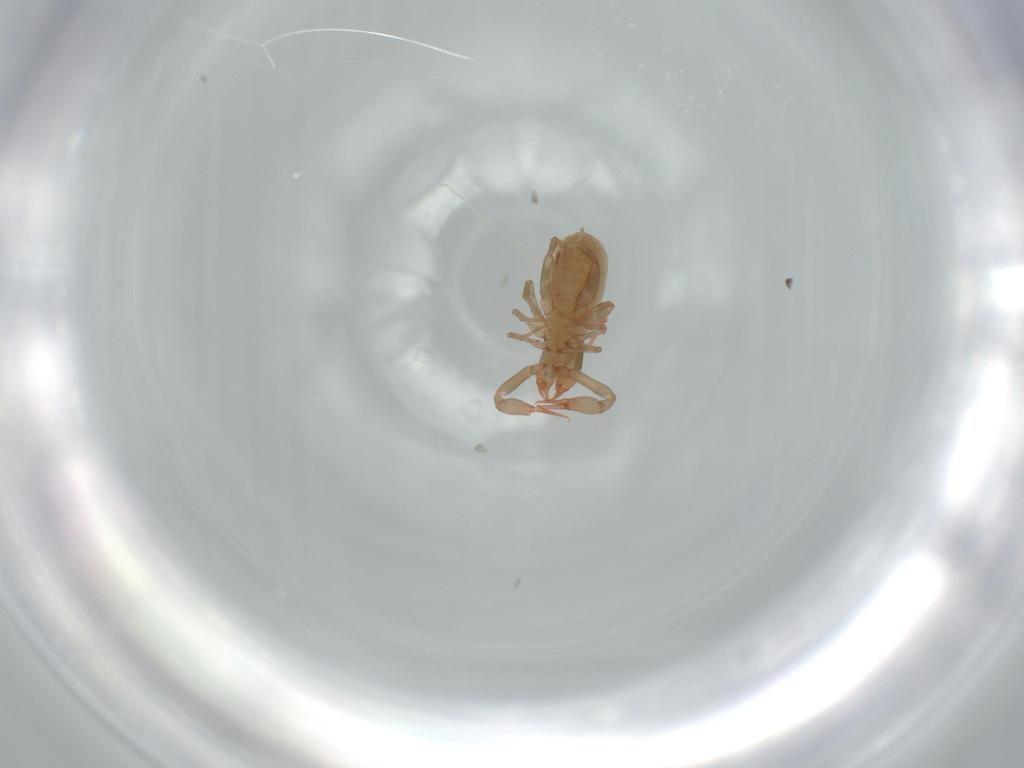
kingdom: Animalia
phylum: Arthropoda
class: Arachnida
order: Pseudoscorpiones
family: Chthoniidae
